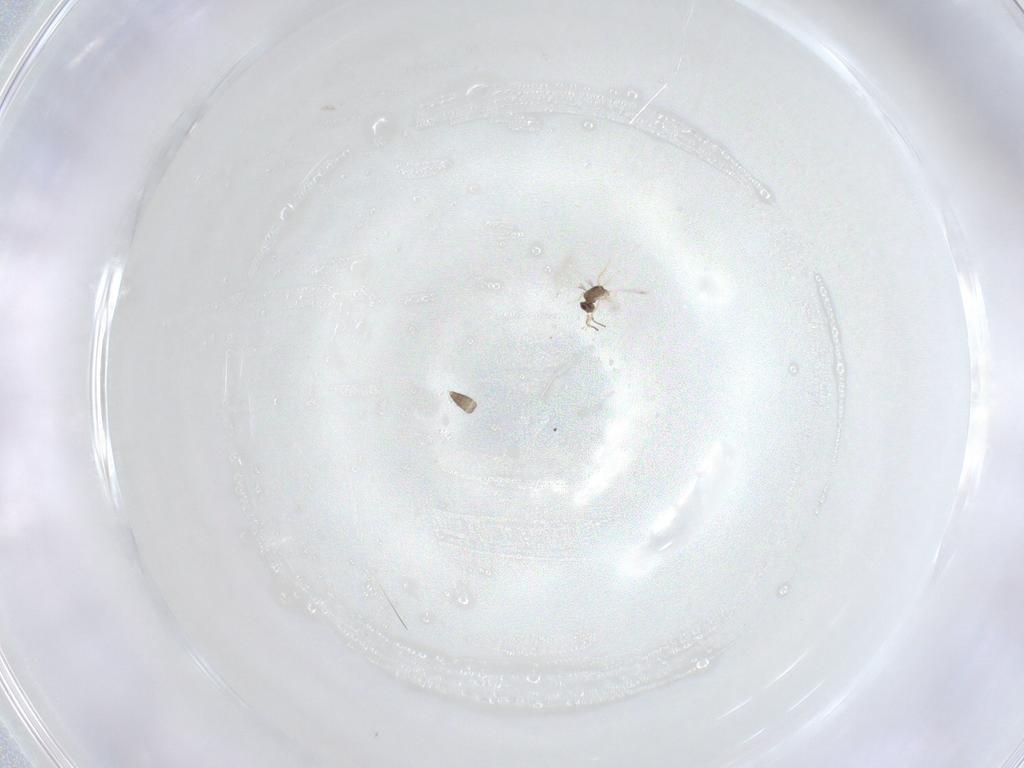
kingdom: Animalia
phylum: Arthropoda
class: Insecta
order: Hymenoptera
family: Mymaridae
